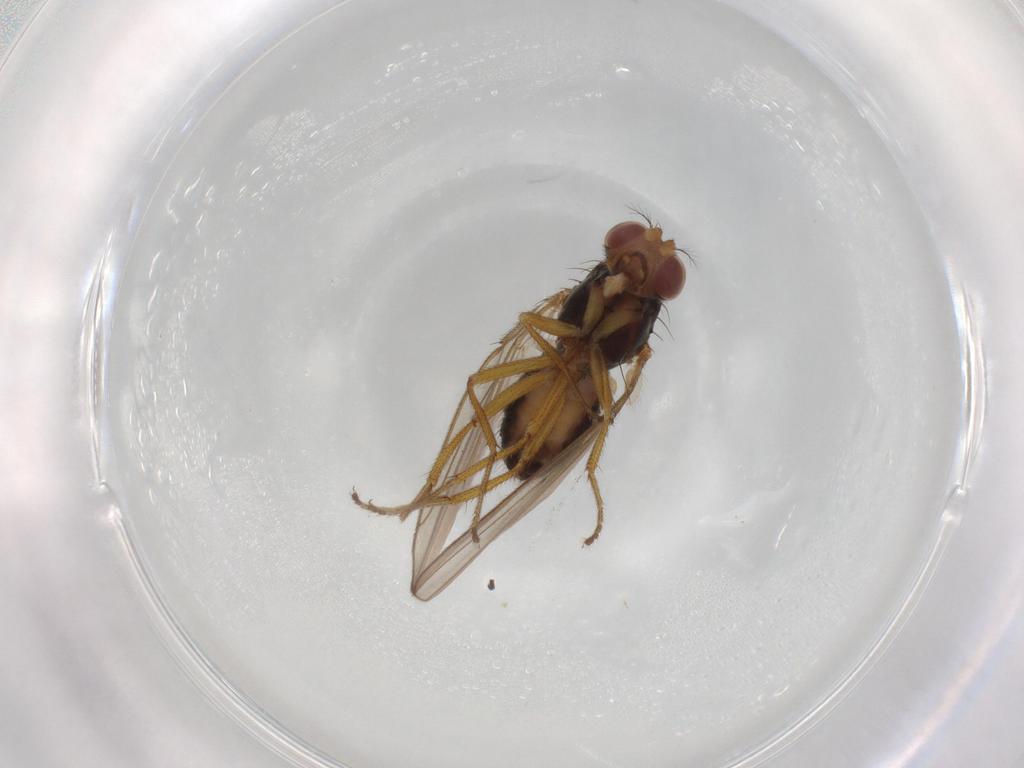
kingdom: Animalia
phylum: Arthropoda
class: Insecta
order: Diptera
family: Drosophilidae
